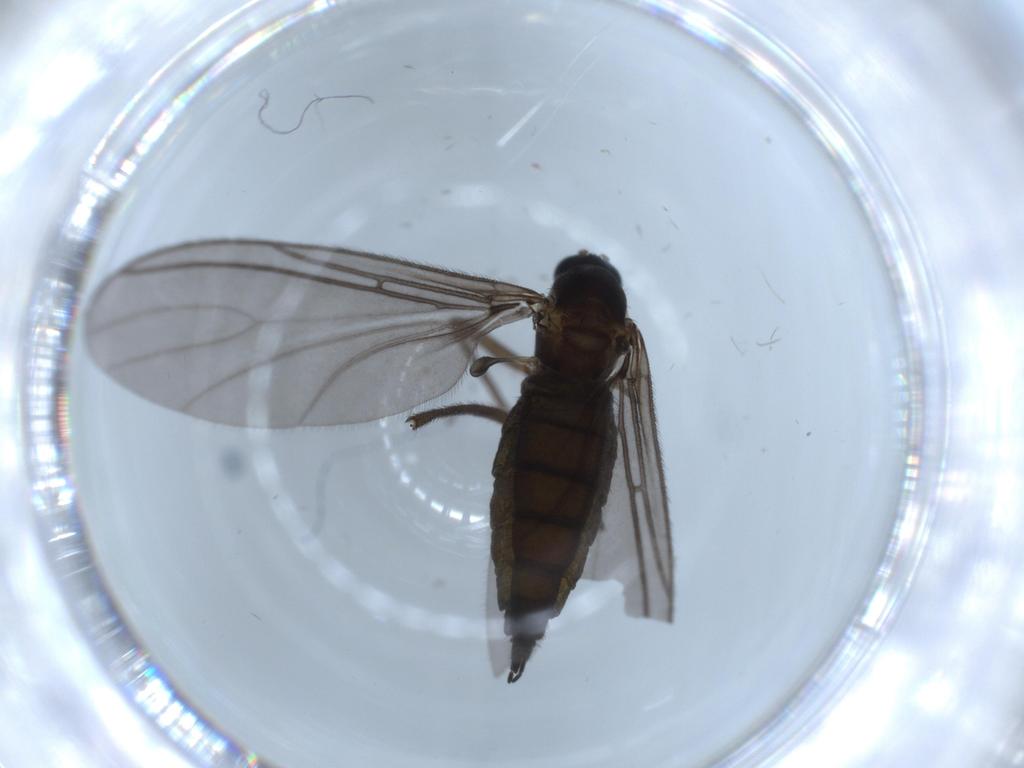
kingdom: Animalia
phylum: Arthropoda
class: Insecta
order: Diptera
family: Sciaridae
